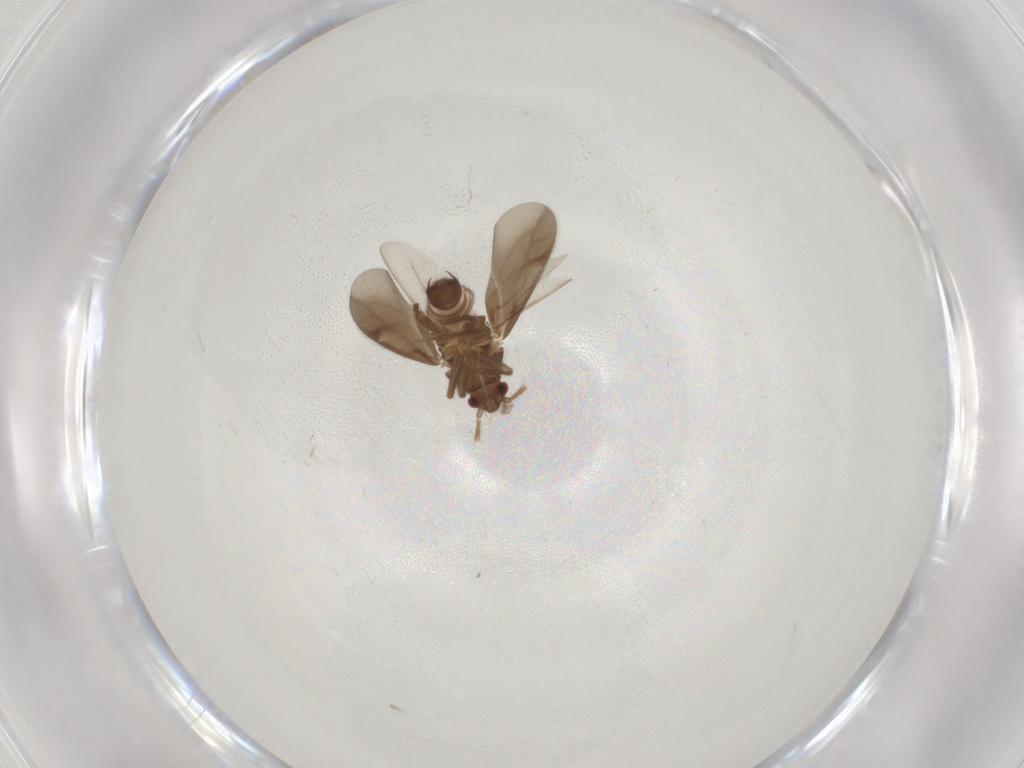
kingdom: Animalia
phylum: Arthropoda
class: Insecta
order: Hemiptera
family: Ceratocombidae
